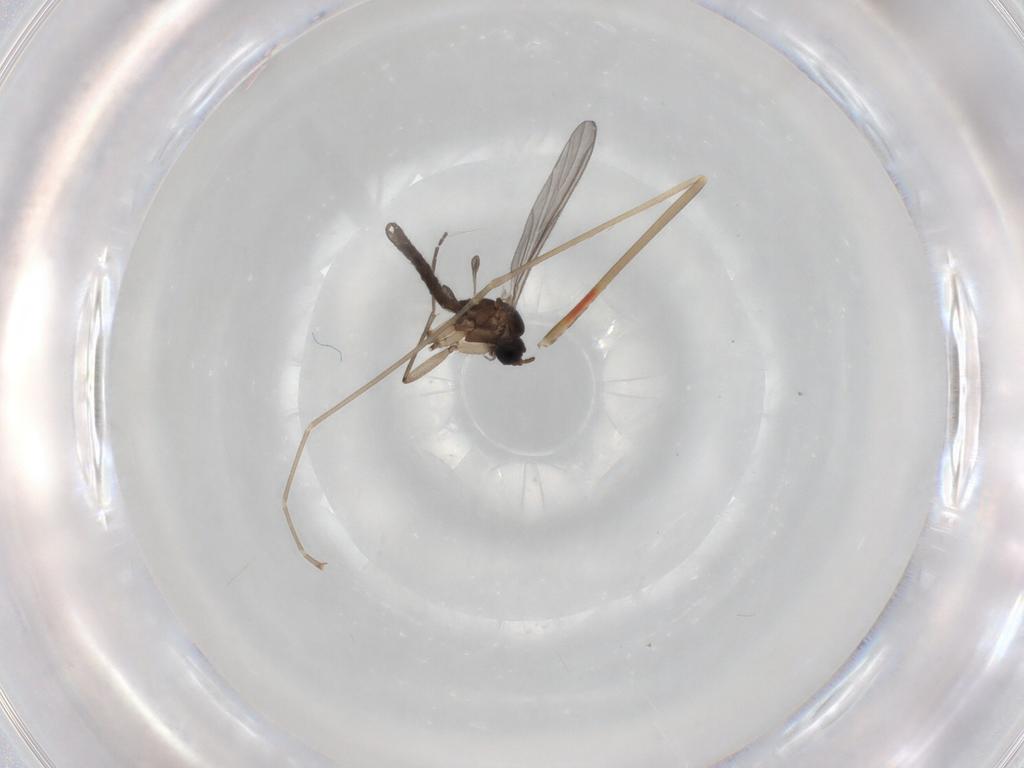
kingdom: Animalia
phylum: Arthropoda
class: Insecta
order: Diptera
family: Sciaridae
